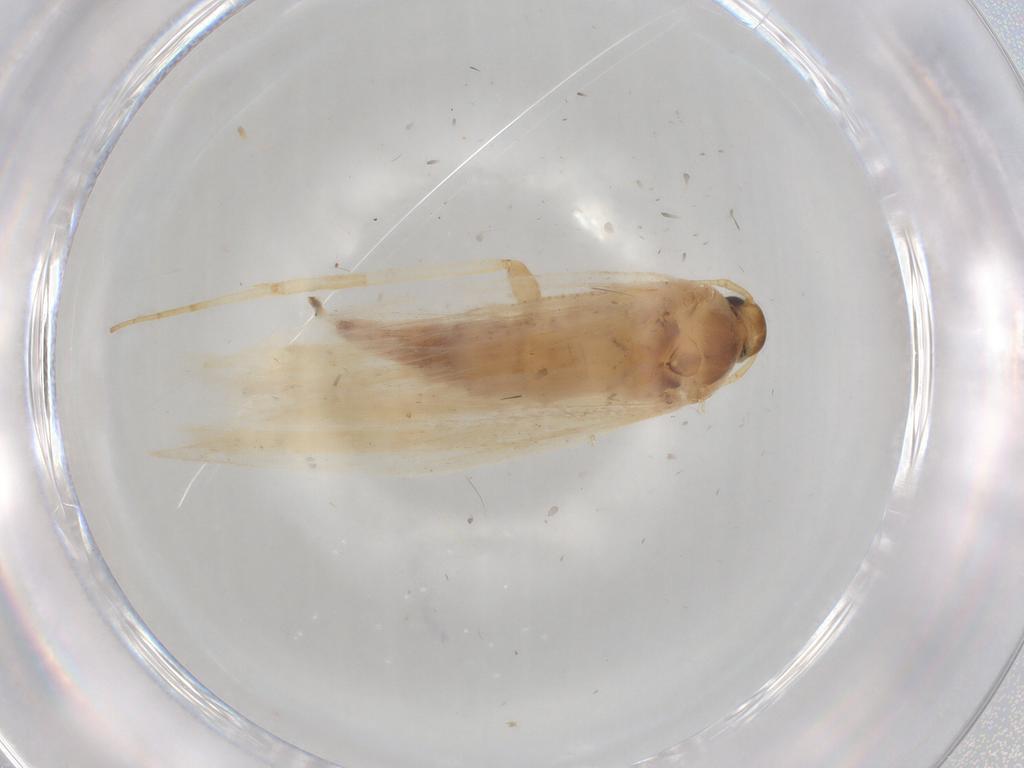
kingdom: Animalia
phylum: Arthropoda
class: Insecta
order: Lepidoptera
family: Gelechiidae
